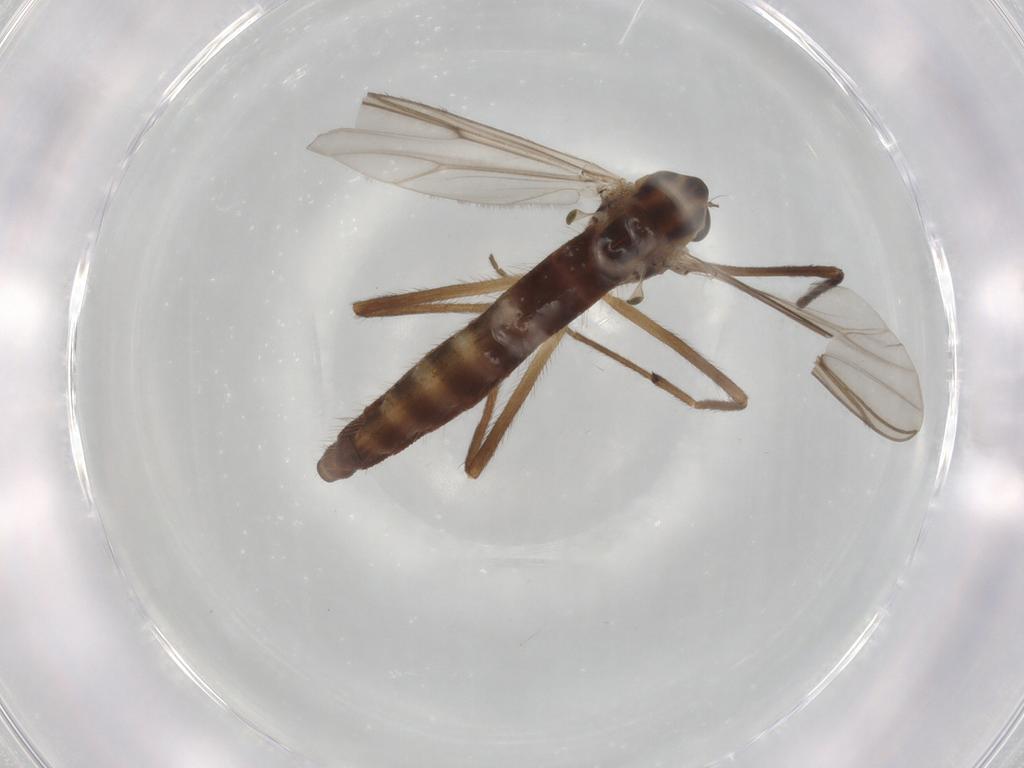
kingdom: Animalia
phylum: Arthropoda
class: Insecta
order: Diptera
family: Chironomidae
